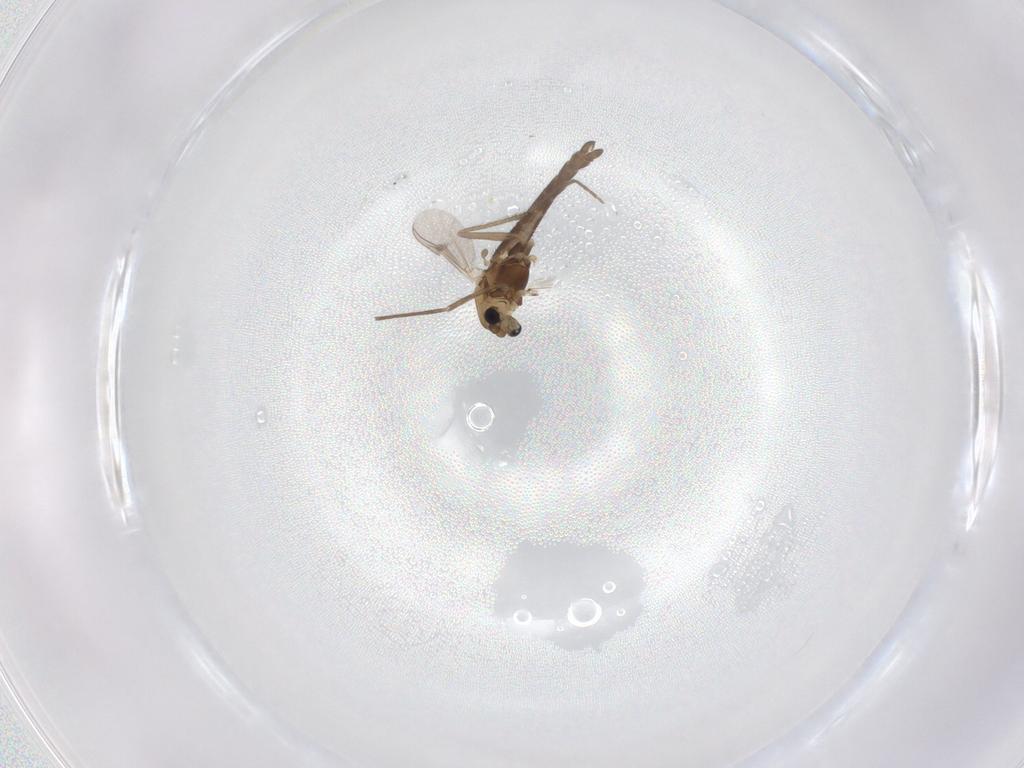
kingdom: Animalia
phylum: Arthropoda
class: Insecta
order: Diptera
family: Chironomidae
